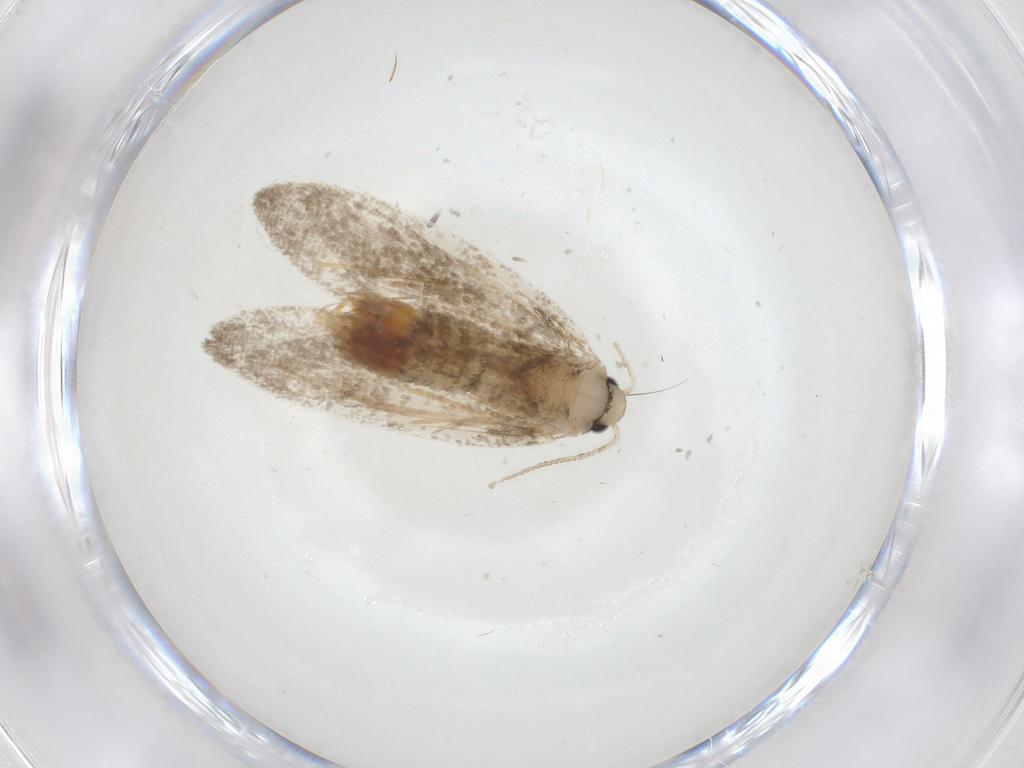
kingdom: Animalia
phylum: Arthropoda
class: Insecta
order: Lepidoptera
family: Psychidae
